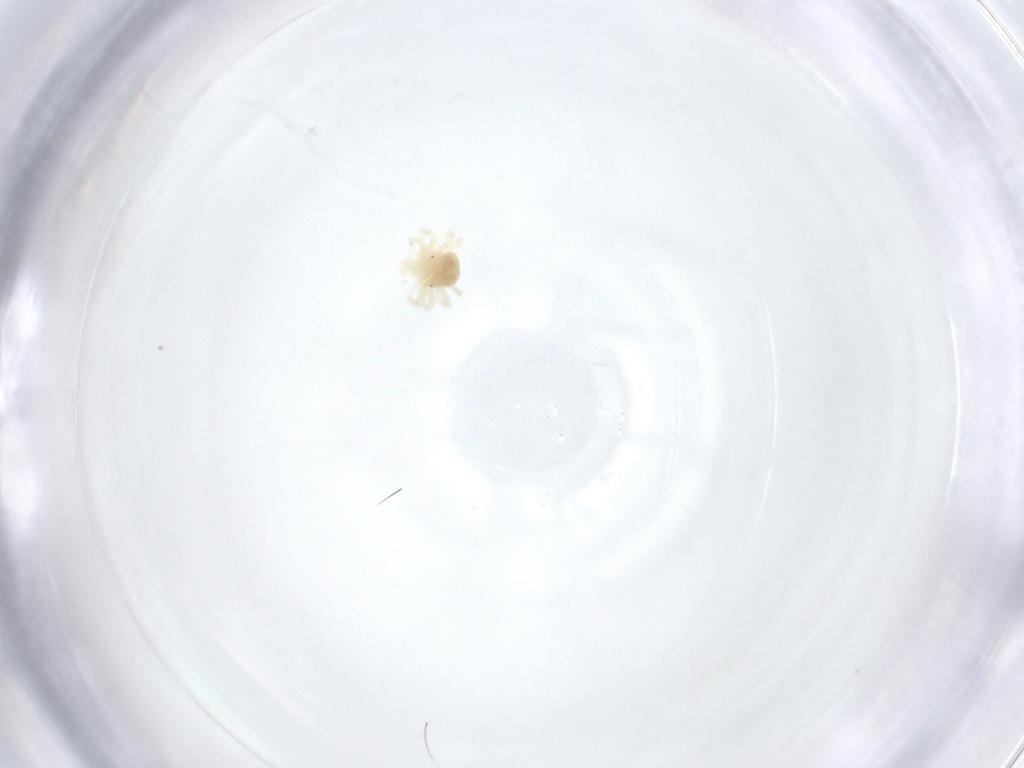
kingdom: Animalia
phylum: Arthropoda
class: Arachnida
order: Trombidiformes
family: Anystidae
